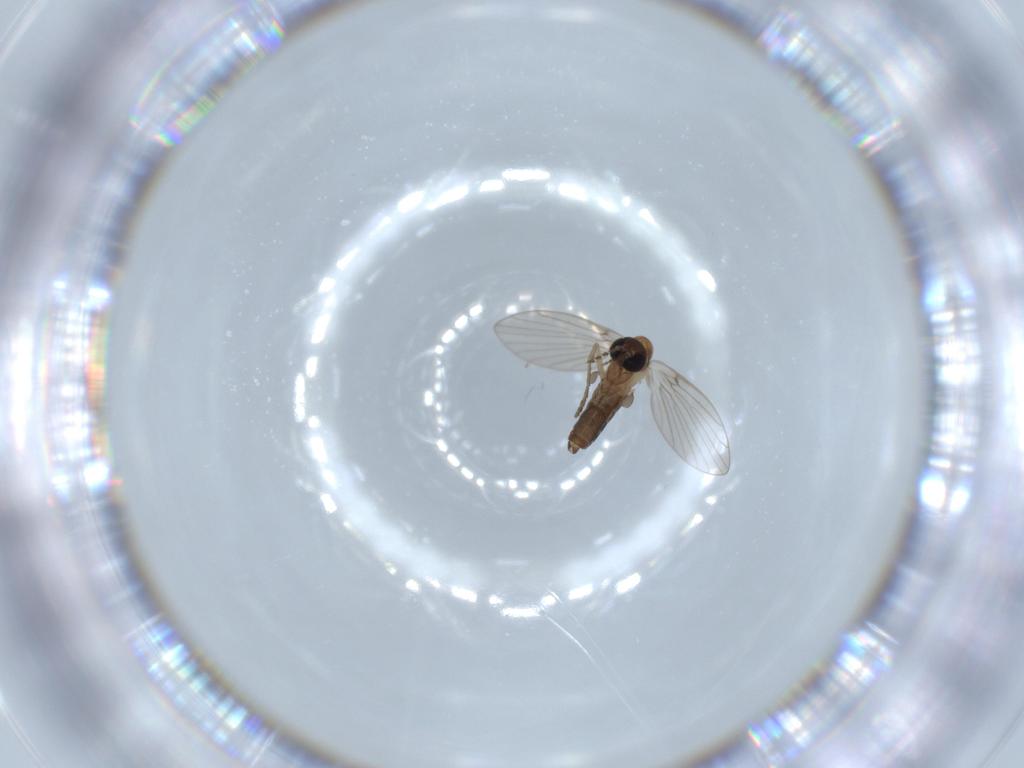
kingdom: Animalia
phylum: Arthropoda
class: Insecta
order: Diptera
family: Psychodidae
